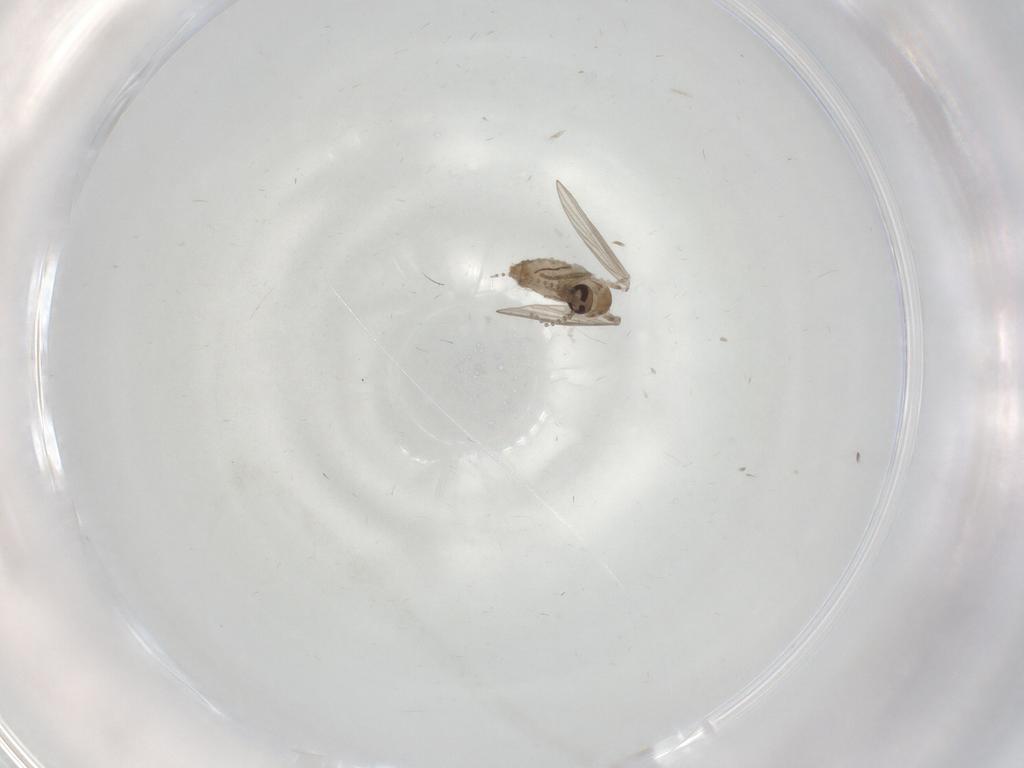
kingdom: Animalia
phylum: Arthropoda
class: Insecta
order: Diptera
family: Psychodidae
